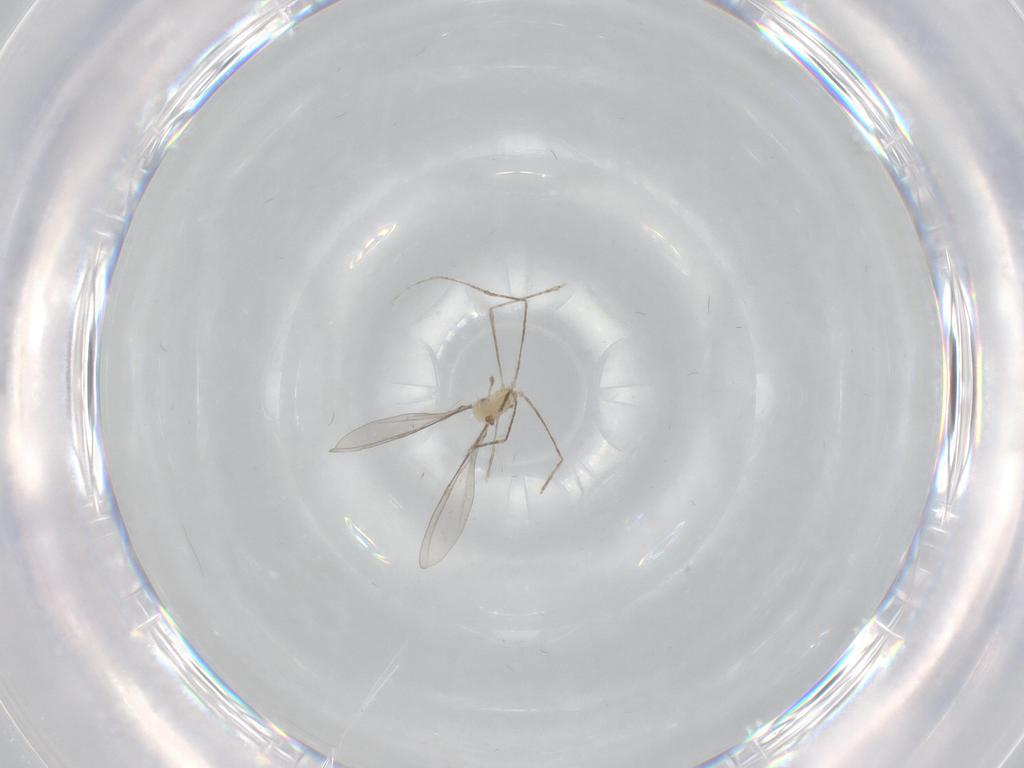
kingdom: Animalia
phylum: Arthropoda
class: Insecta
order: Diptera
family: Cecidomyiidae
